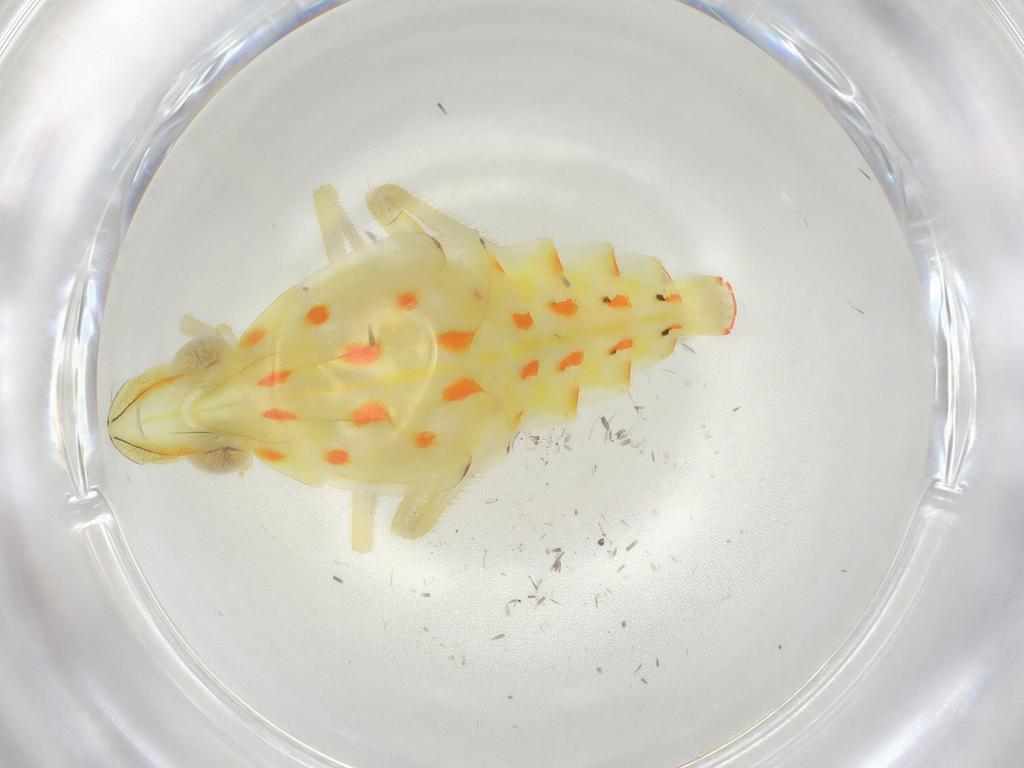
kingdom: Animalia
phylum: Arthropoda
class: Insecta
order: Hemiptera
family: Tropiduchidae
